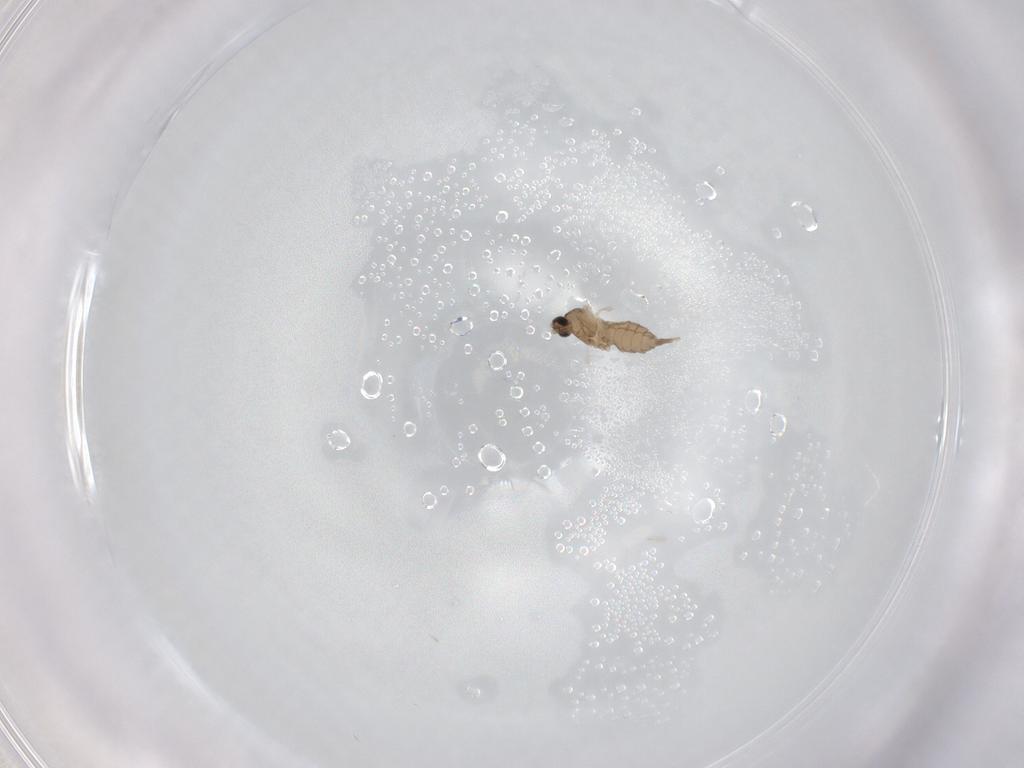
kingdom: Animalia
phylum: Arthropoda
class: Insecta
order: Diptera
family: Cecidomyiidae
